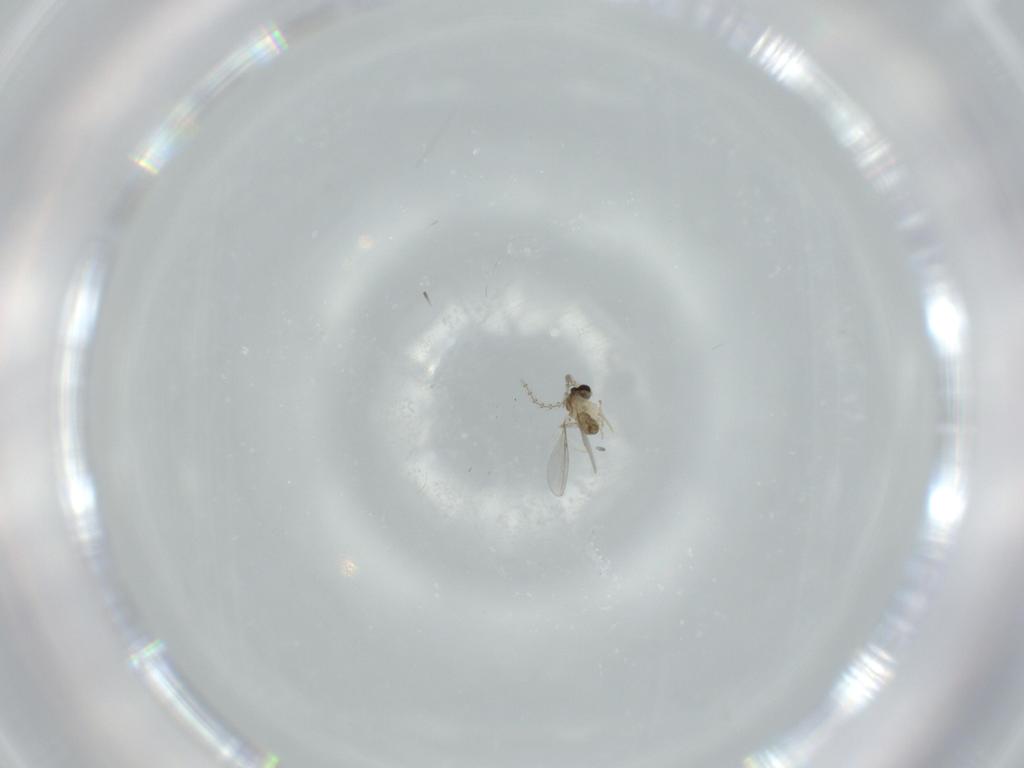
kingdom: Animalia
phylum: Arthropoda
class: Insecta
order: Diptera
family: Cecidomyiidae
